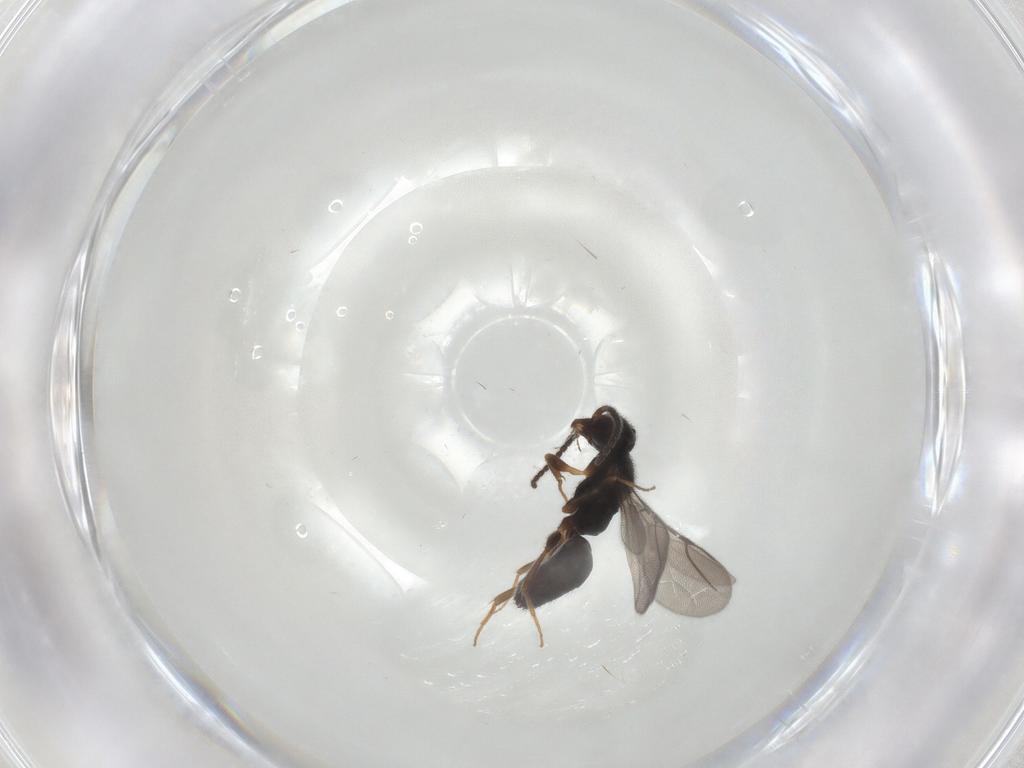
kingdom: Animalia
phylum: Arthropoda
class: Insecta
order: Hymenoptera
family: Bethylidae
